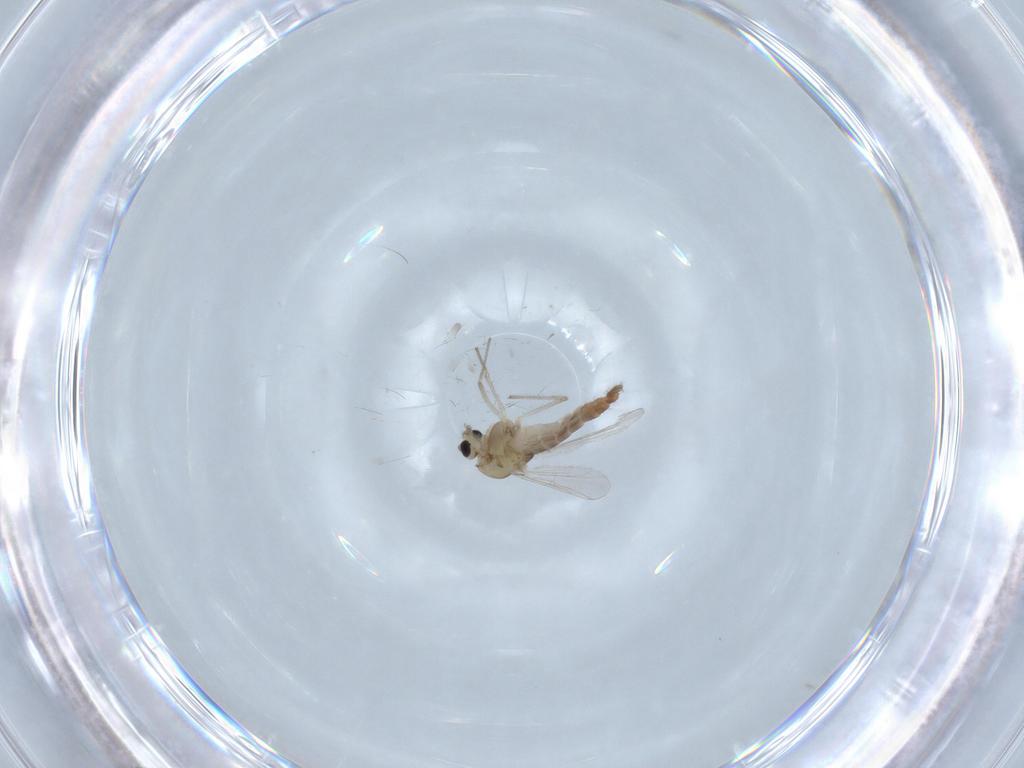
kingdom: Animalia
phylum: Arthropoda
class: Insecta
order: Diptera
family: Chironomidae
